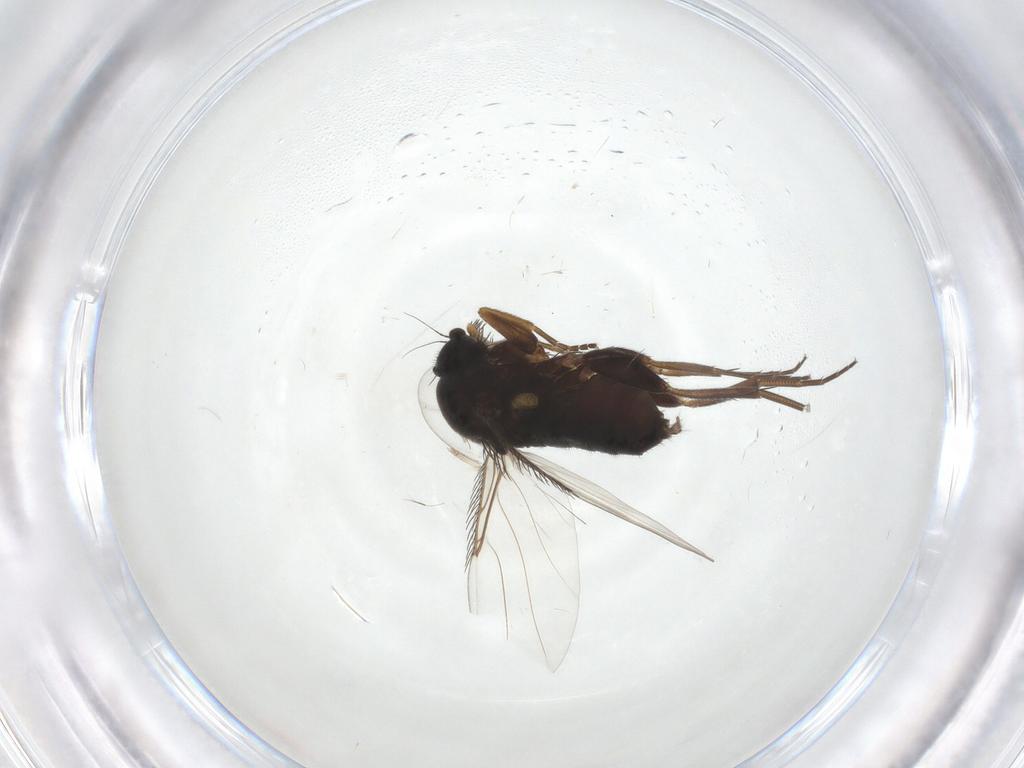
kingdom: Animalia
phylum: Arthropoda
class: Insecta
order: Diptera
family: Phoridae
